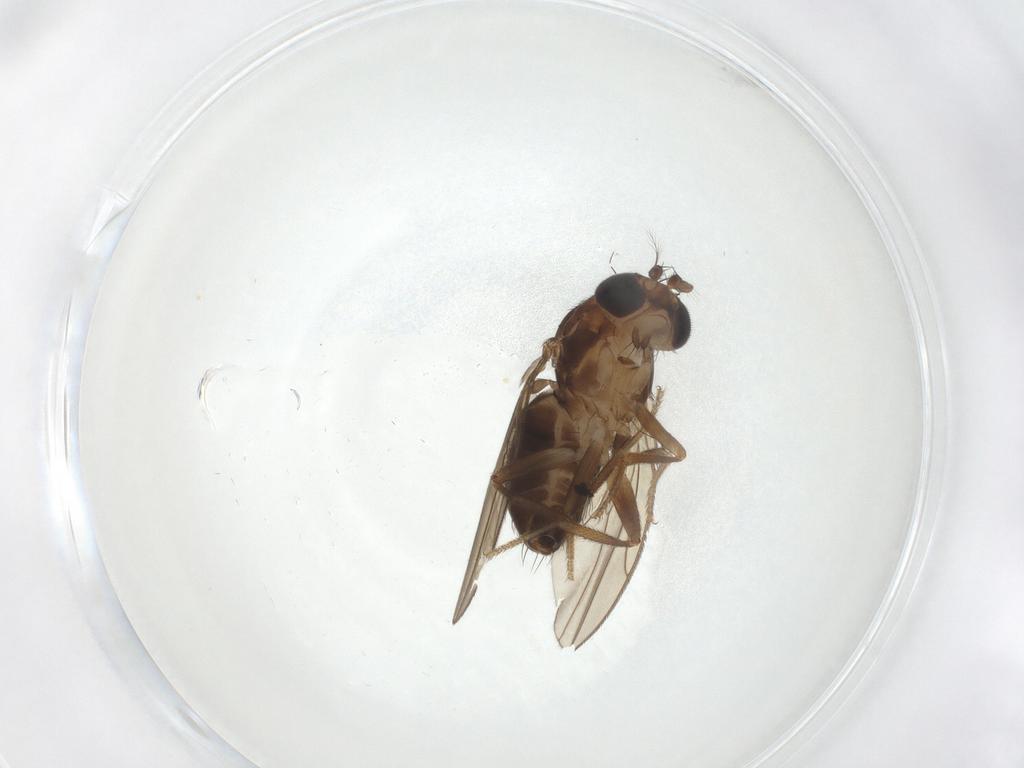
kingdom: Animalia
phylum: Arthropoda
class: Insecta
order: Diptera
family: Drosophilidae
